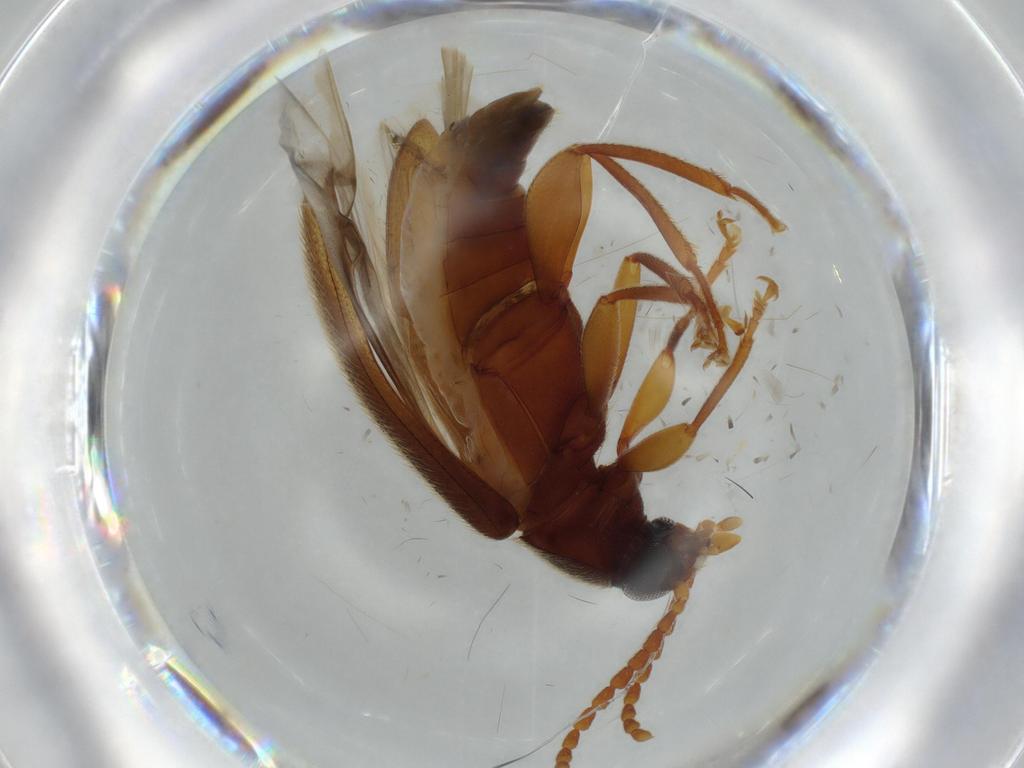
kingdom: Animalia
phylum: Arthropoda
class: Insecta
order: Coleoptera
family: Tenebrionidae
